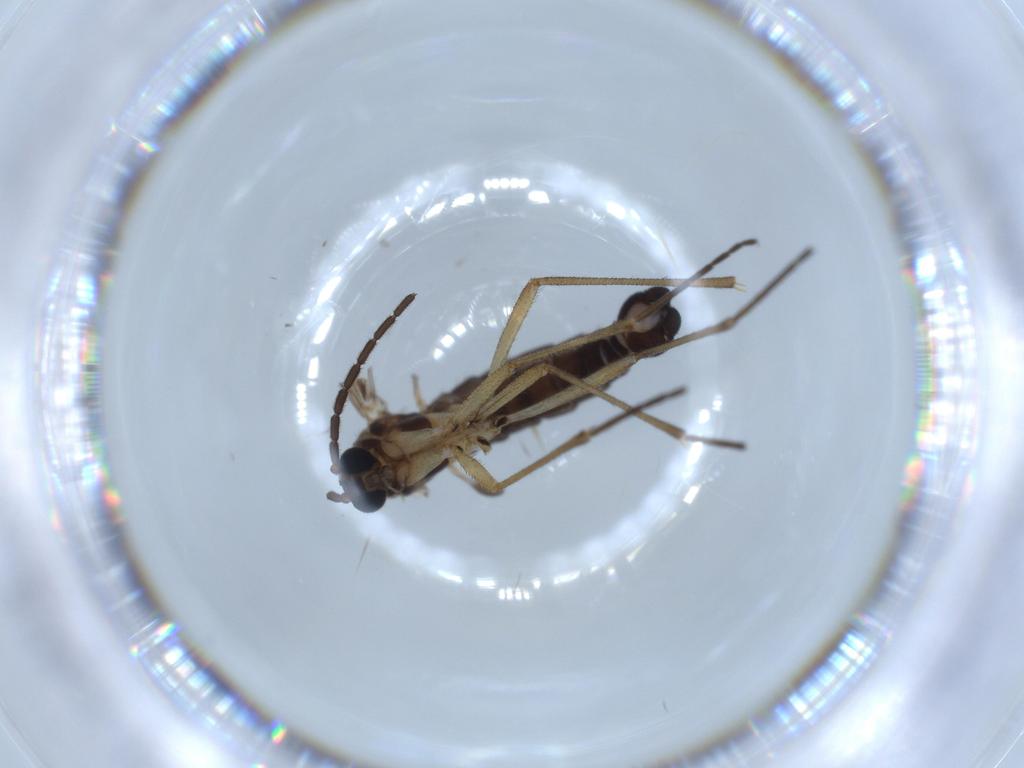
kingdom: Animalia
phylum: Arthropoda
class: Insecta
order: Diptera
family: Sciaridae
